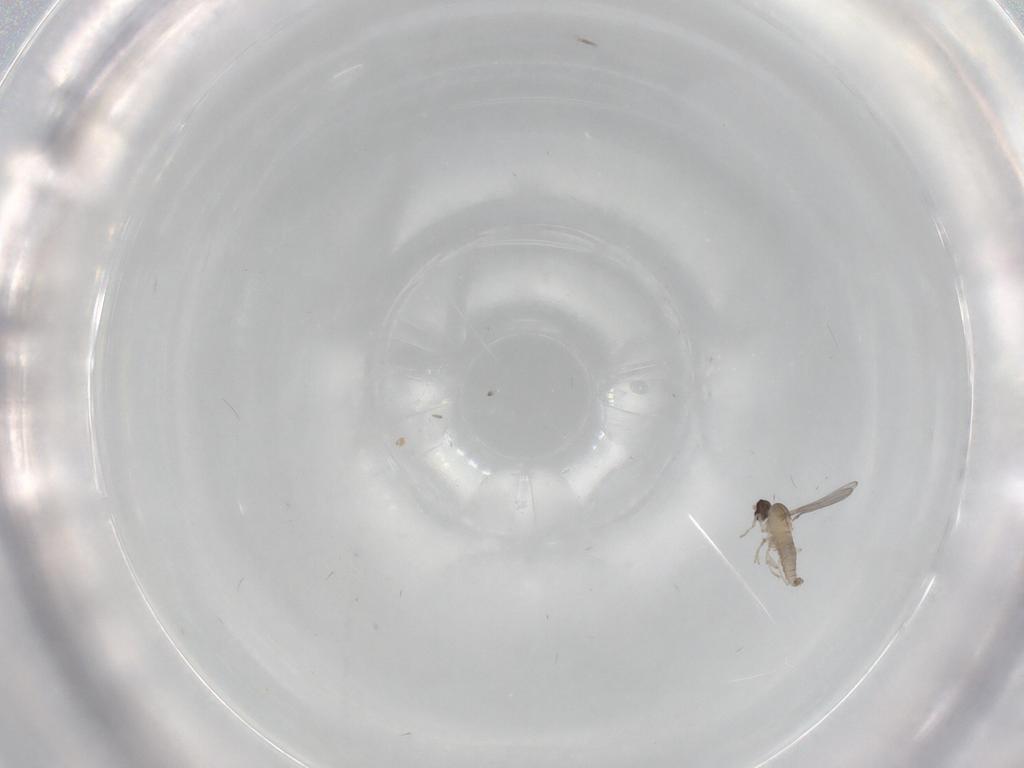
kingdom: Animalia
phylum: Arthropoda
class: Insecta
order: Diptera
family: Cecidomyiidae
